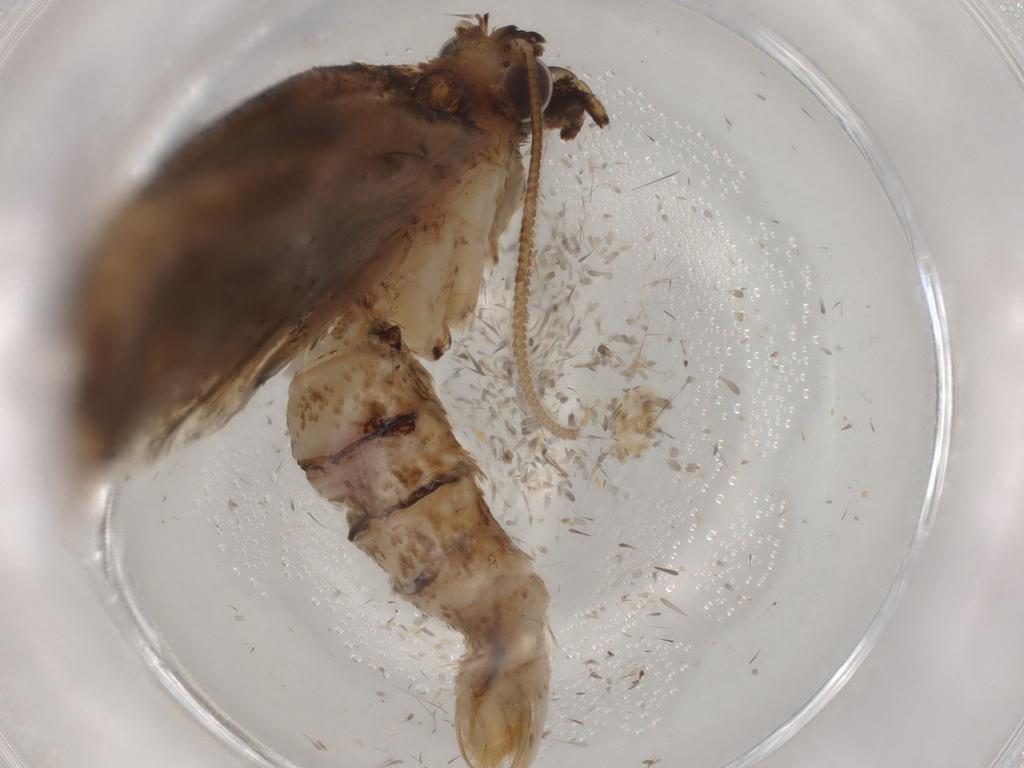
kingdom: Animalia
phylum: Arthropoda
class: Insecta
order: Lepidoptera
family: Tortricidae
